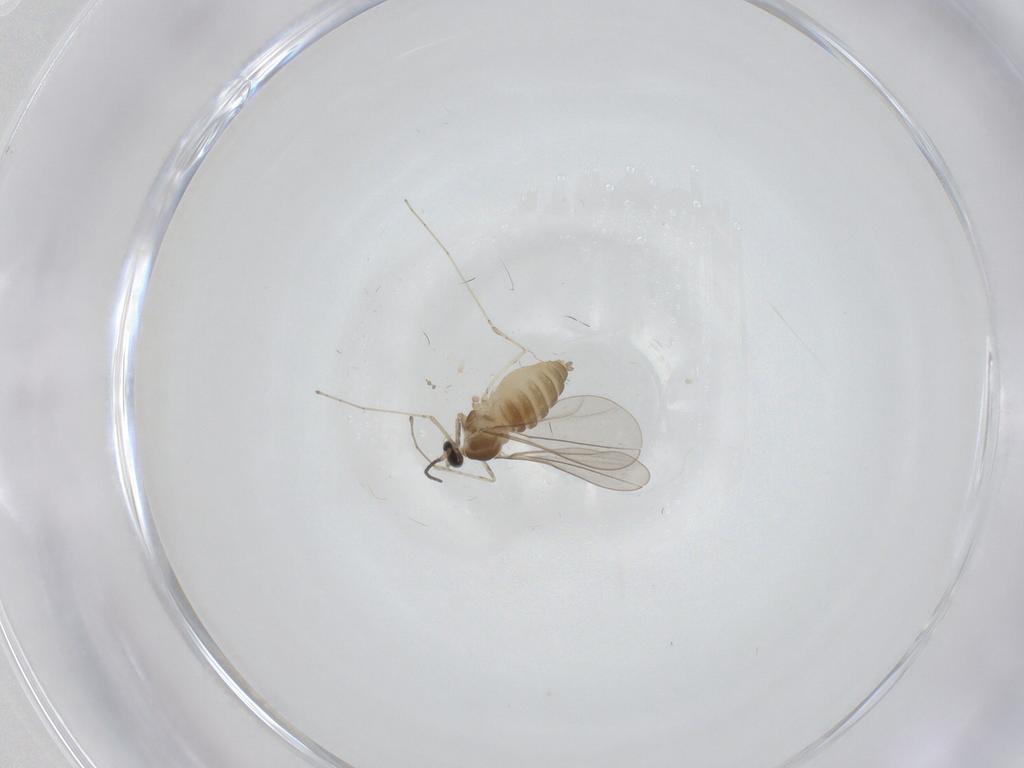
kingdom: Animalia
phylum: Arthropoda
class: Insecta
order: Diptera
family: Cecidomyiidae
